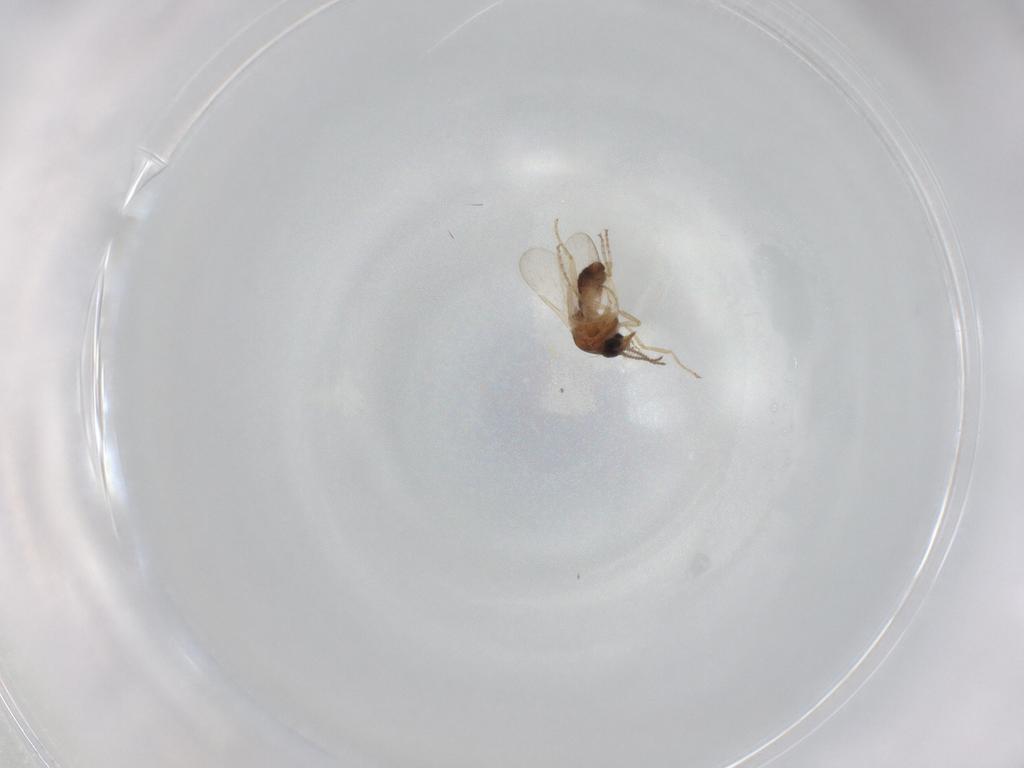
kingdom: Animalia
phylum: Arthropoda
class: Insecta
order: Diptera
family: Ceratopogonidae
